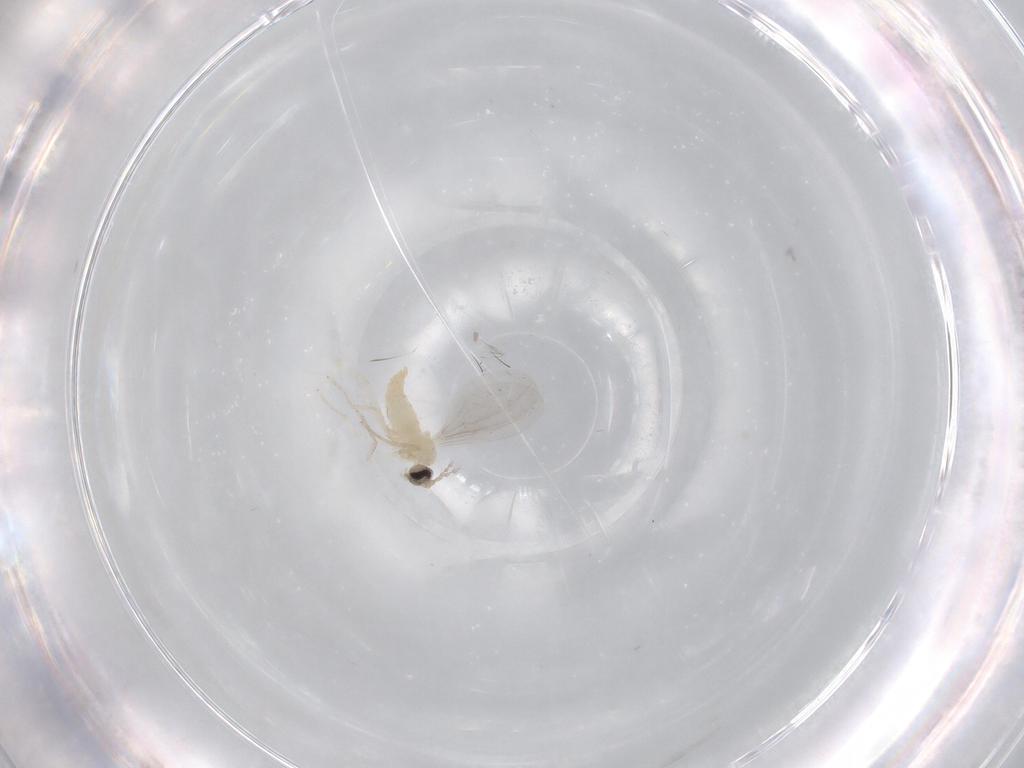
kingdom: Animalia
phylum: Arthropoda
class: Insecta
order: Diptera
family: Cecidomyiidae
